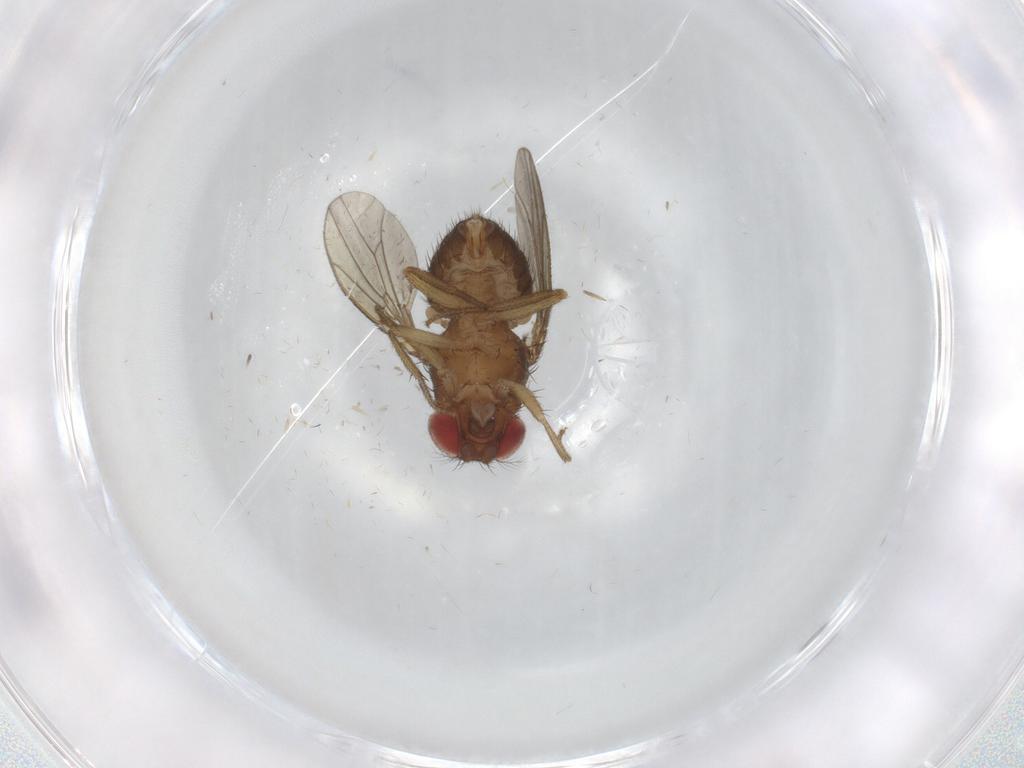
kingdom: Animalia
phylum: Arthropoda
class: Insecta
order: Diptera
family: Drosophilidae
